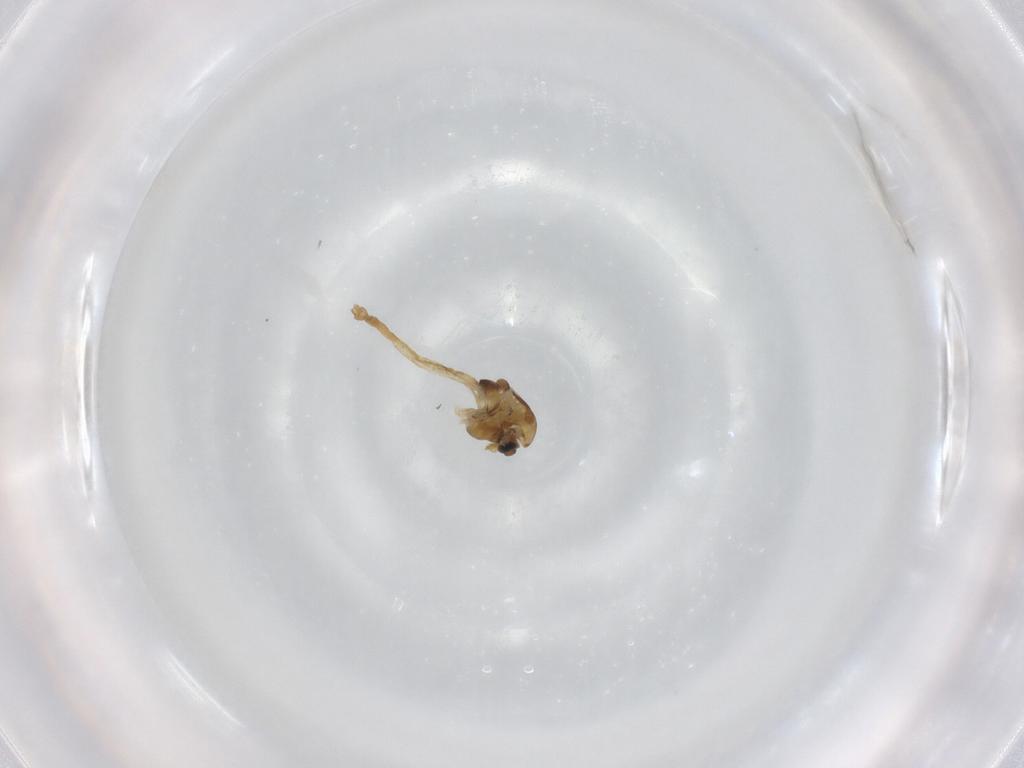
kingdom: Animalia
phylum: Arthropoda
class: Insecta
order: Diptera
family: Chironomidae
